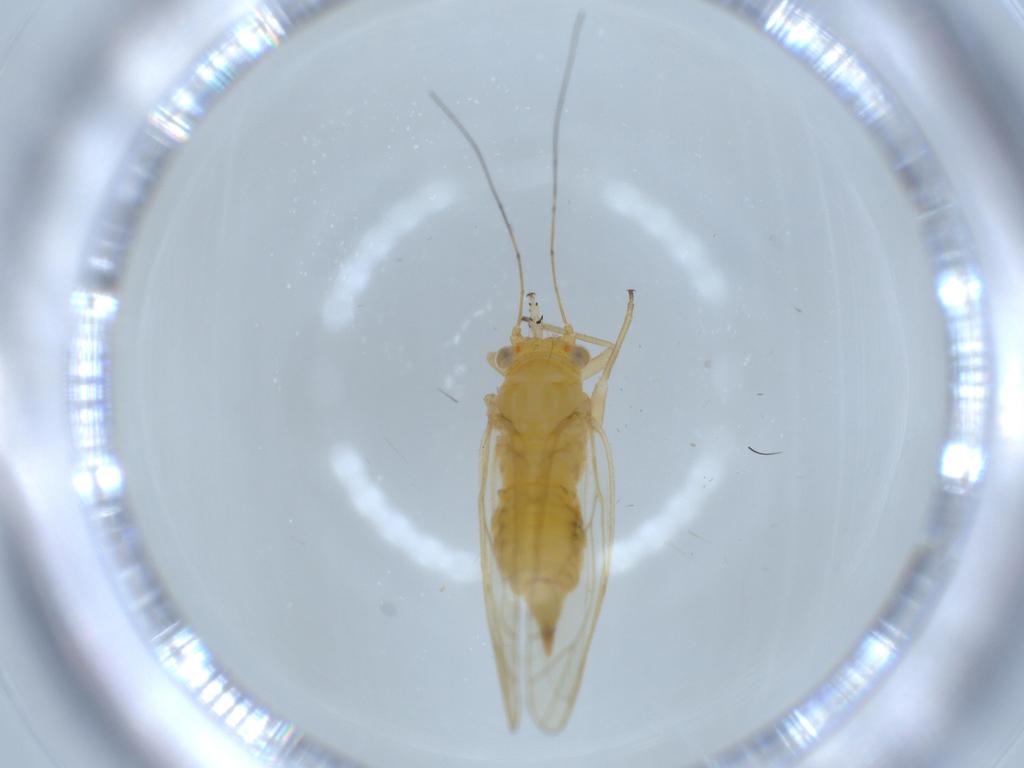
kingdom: Animalia
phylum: Arthropoda
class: Insecta
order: Hemiptera
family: Psyllidae
